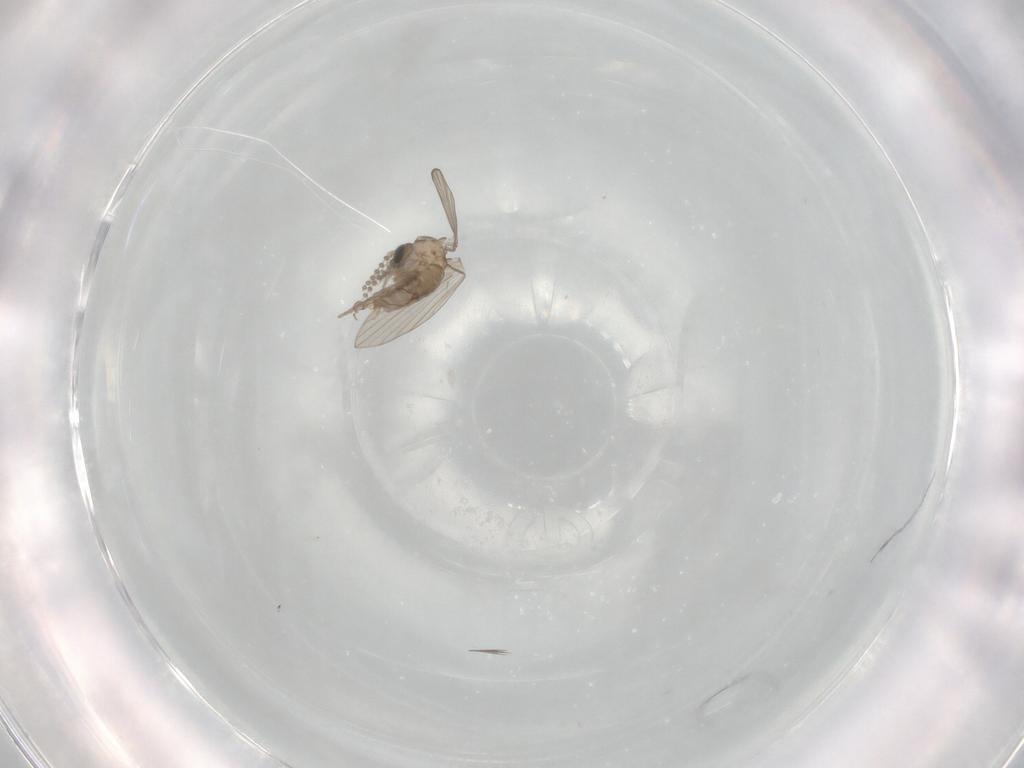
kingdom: Animalia
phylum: Arthropoda
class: Insecta
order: Diptera
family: Psychodidae
